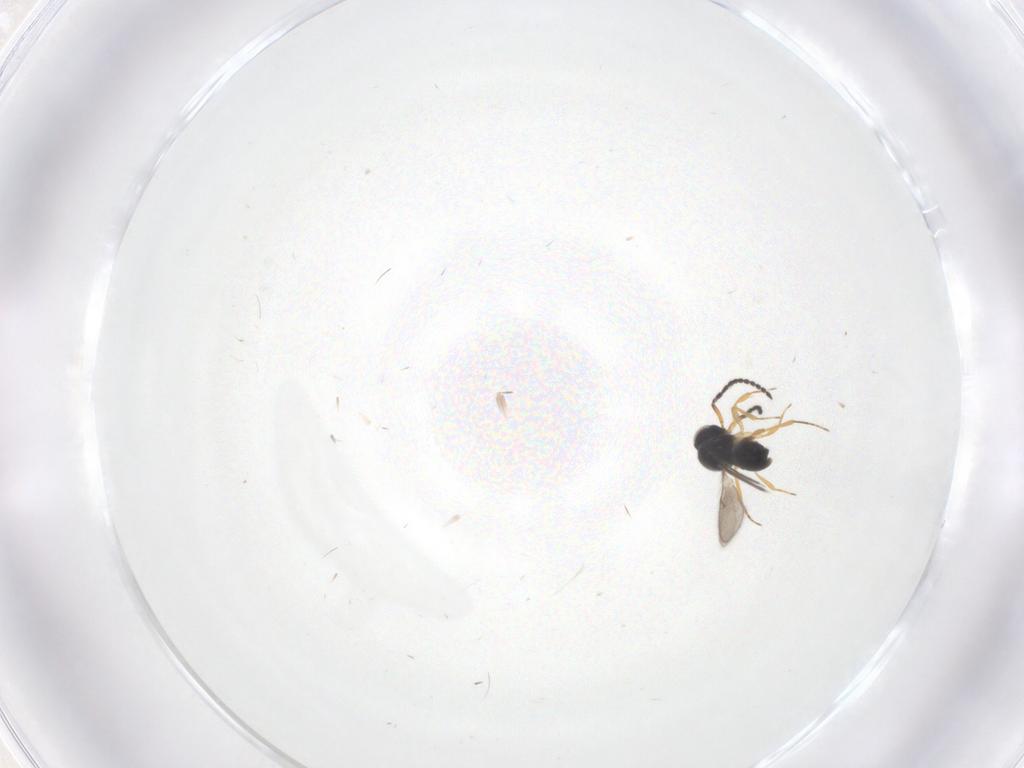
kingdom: Animalia
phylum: Arthropoda
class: Insecta
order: Hymenoptera
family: Scelionidae
